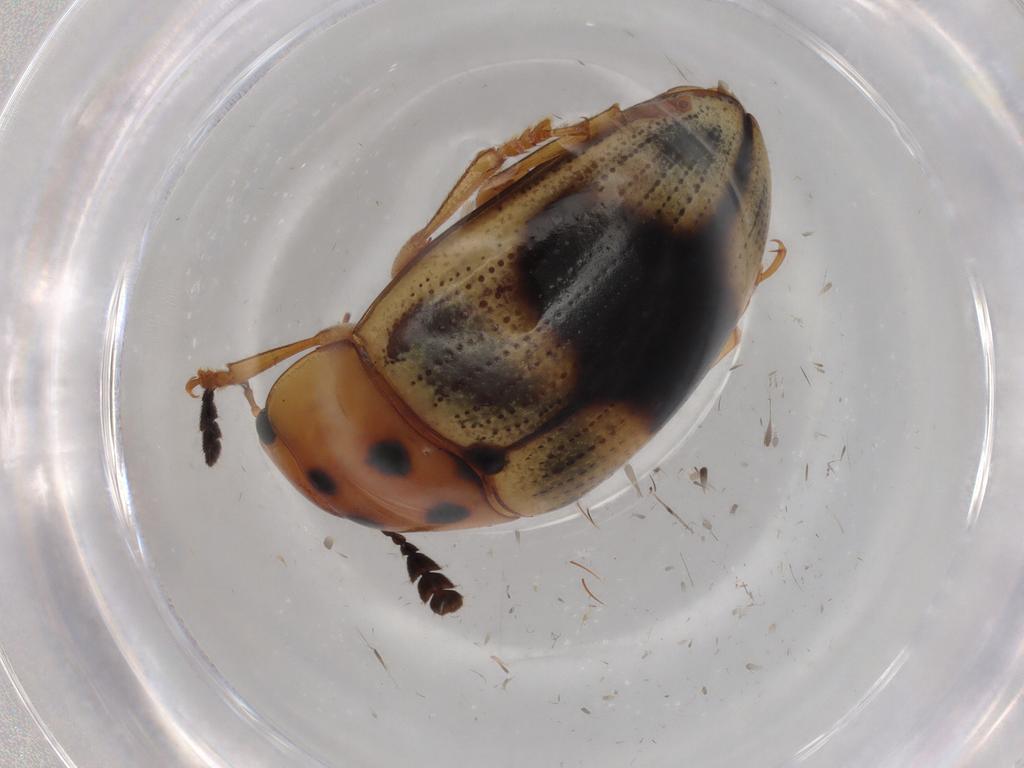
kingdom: Animalia
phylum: Arthropoda
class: Insecta
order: Coleoptera
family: Erotylidae
